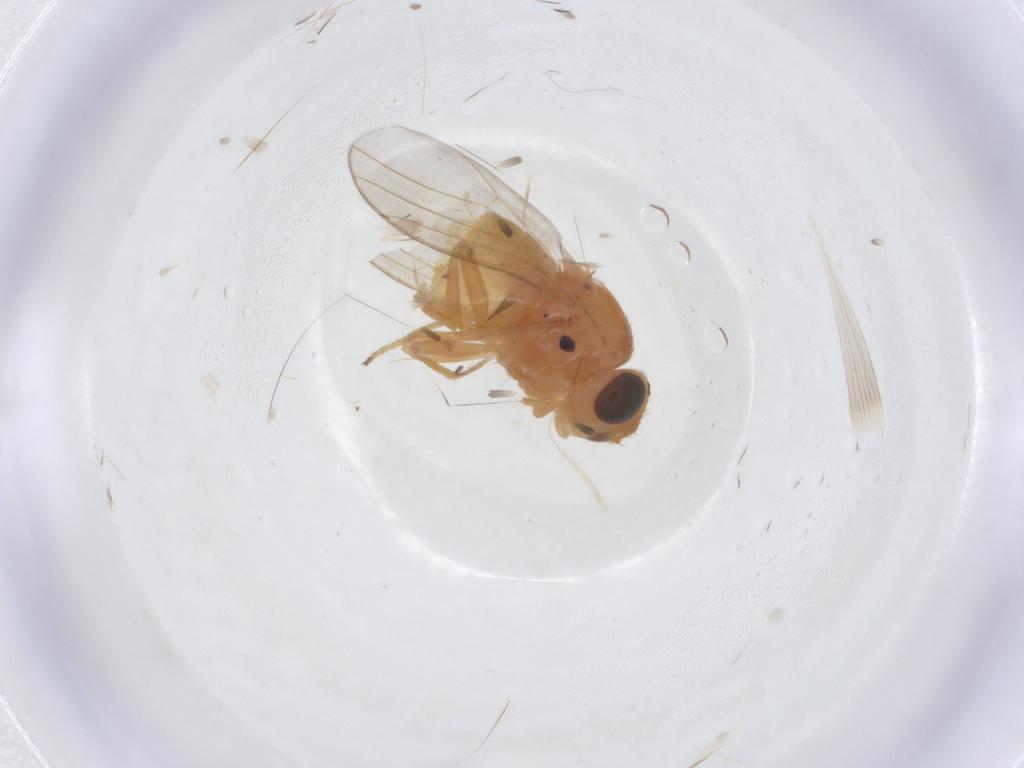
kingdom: Animalia
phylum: Arthropoda
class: Insecta
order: Diptera
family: Chloropidae
